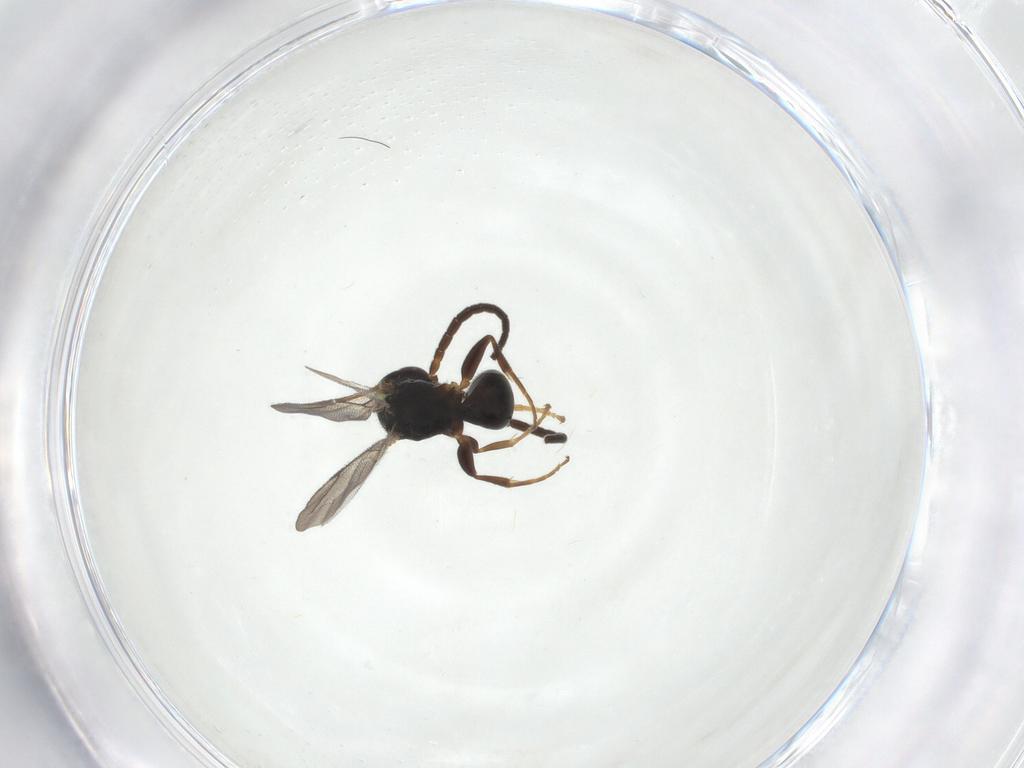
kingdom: Animalia
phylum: Arthropoda
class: Insecta
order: Hymenoptera
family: Bethylidae
